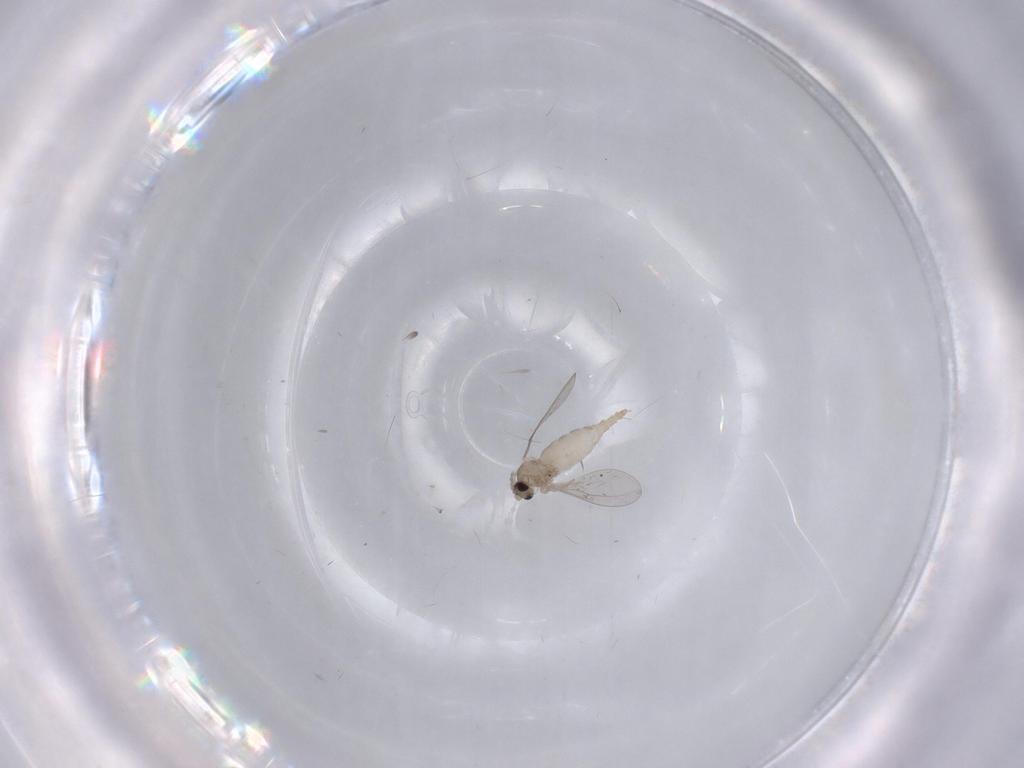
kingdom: Animalia
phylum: Arthropoda
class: Insecta
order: Diptera
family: Cecidomyiidae
